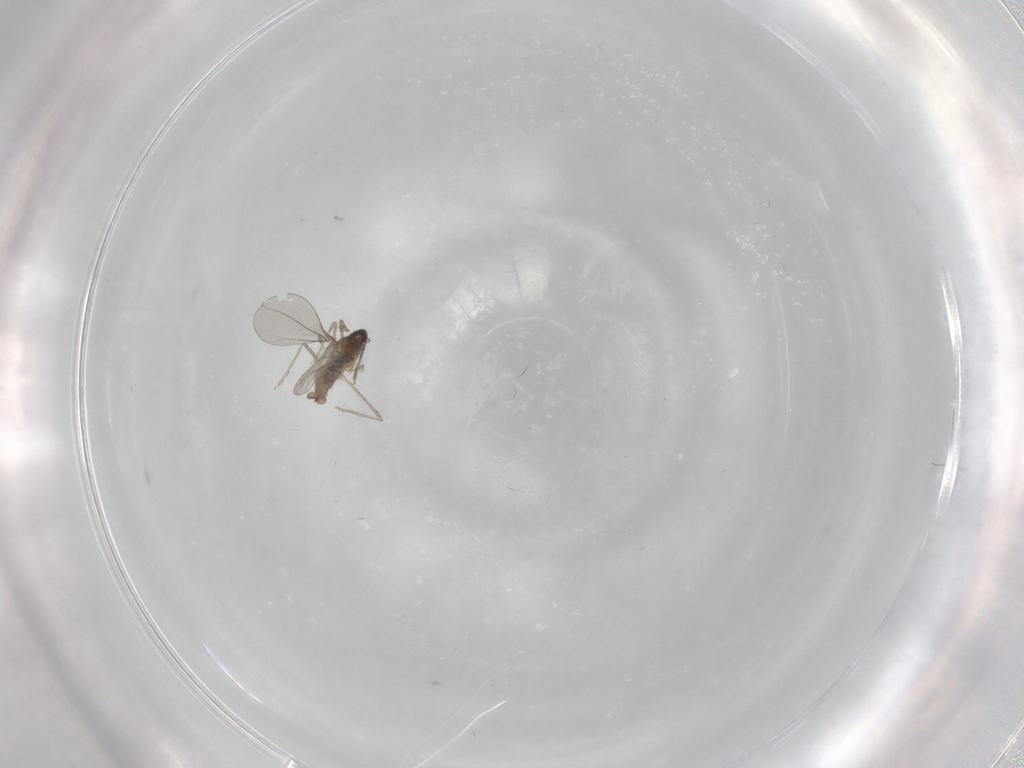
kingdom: Animalia
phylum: Arthropoda
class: Insecta
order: Diptera
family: Cecidomyiidae
